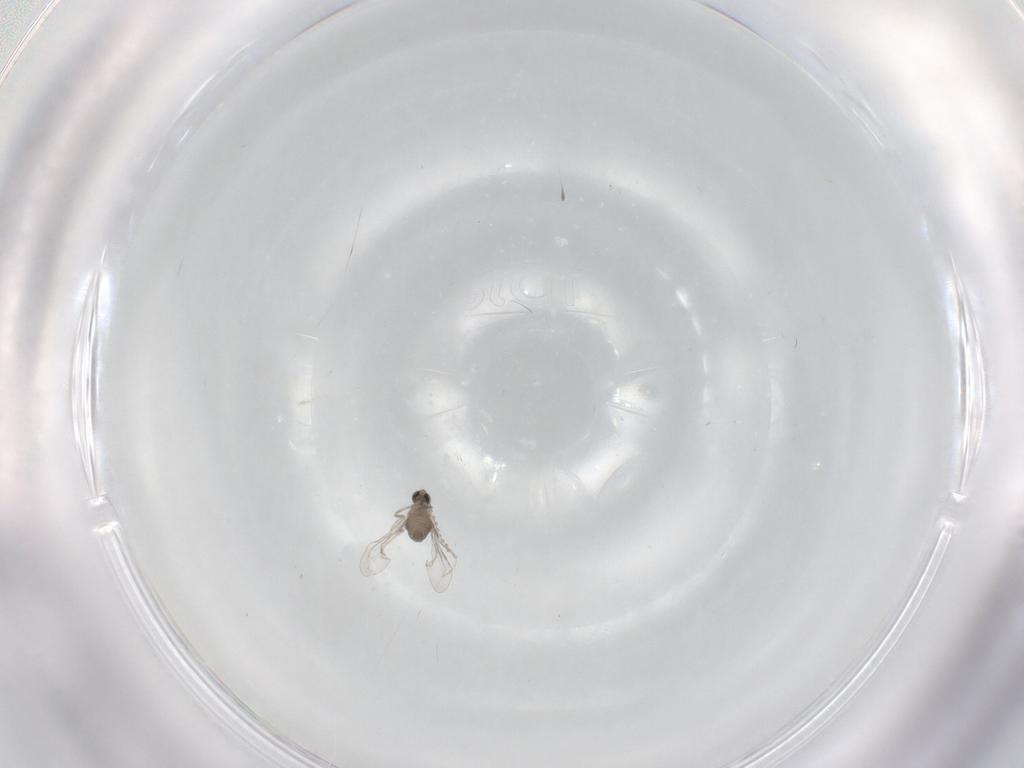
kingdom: Animalia
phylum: Arthropoda
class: Insecta
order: Diptera
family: Cecidomyiidae
